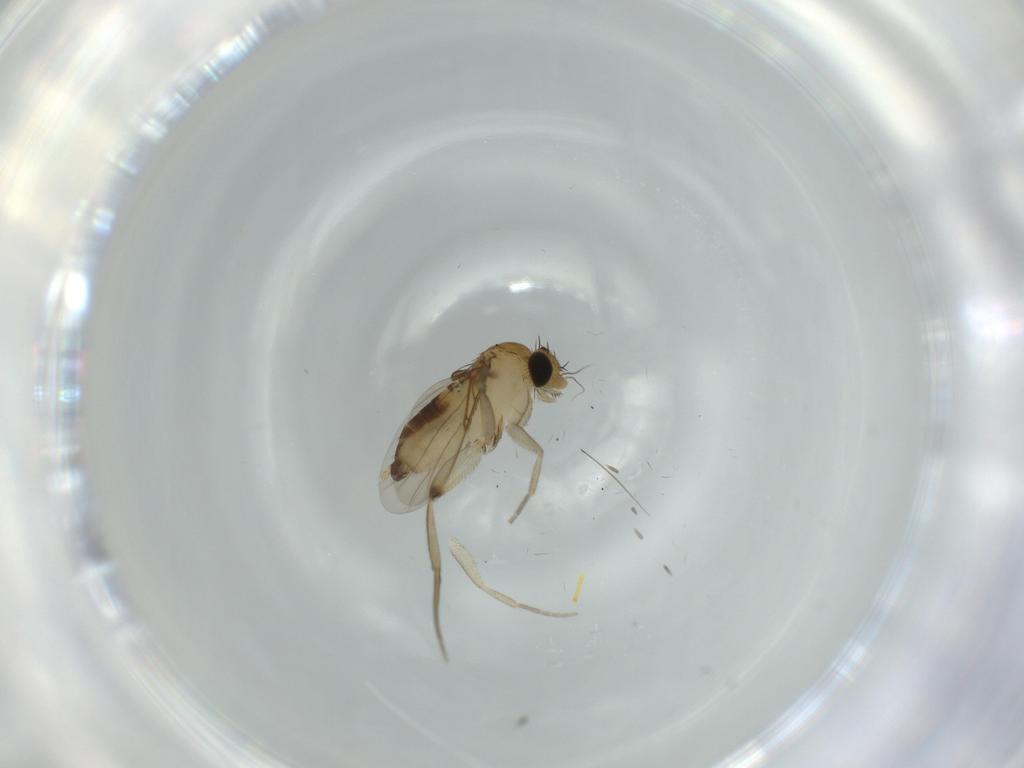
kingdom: Animalia
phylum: Arthropoda
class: Insecta
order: Diptera
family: Phoridae
